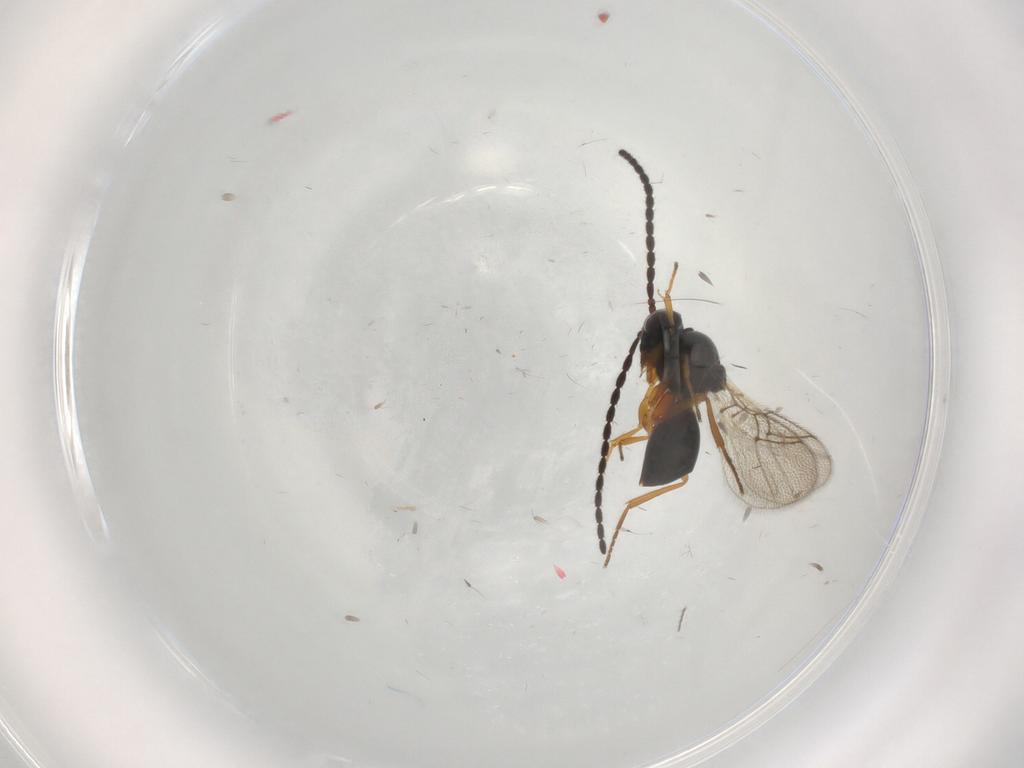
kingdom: Animalia
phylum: Arthropoda
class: Insecta
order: Hymenoptera
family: Figitidae
